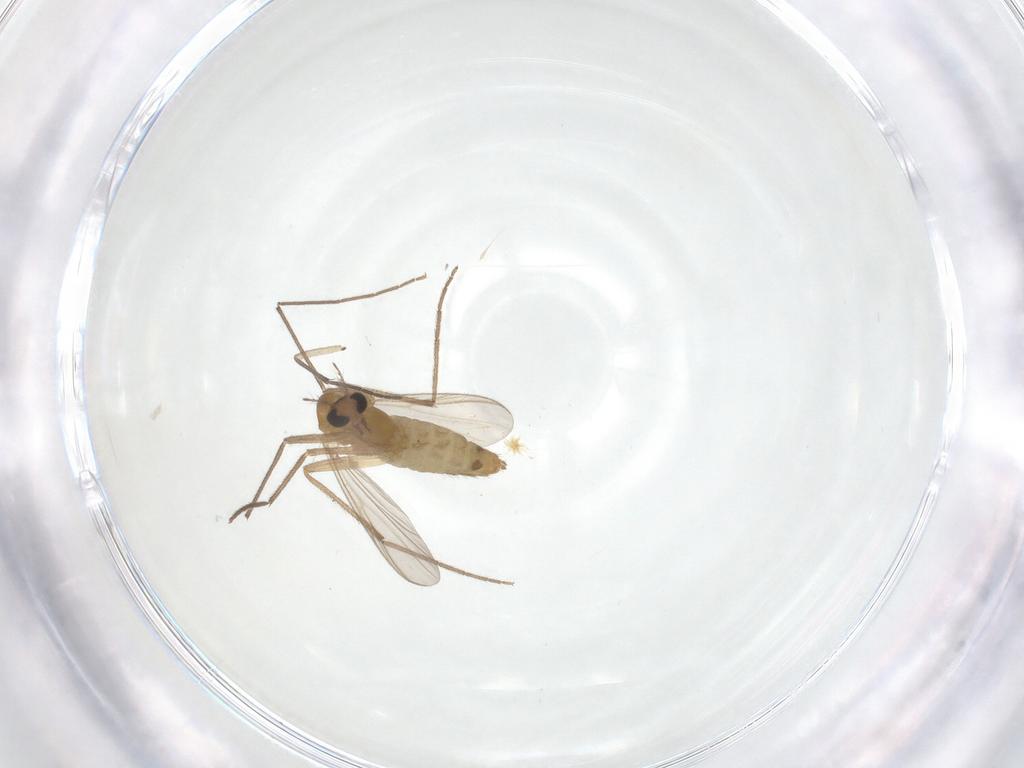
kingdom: Animalia
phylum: Arthropoda
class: Insecta
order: Diptera
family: Chironomidae
